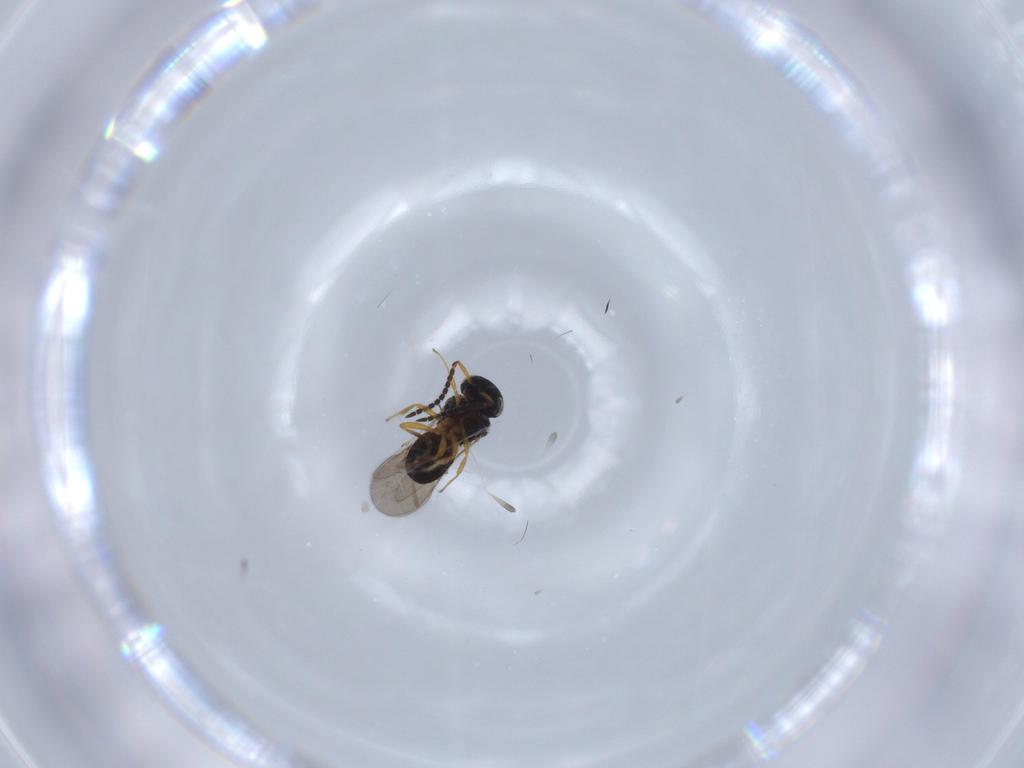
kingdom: Animalia
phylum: Arthropoda
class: Insecta
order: Hymenoptera
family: Scelionidae
